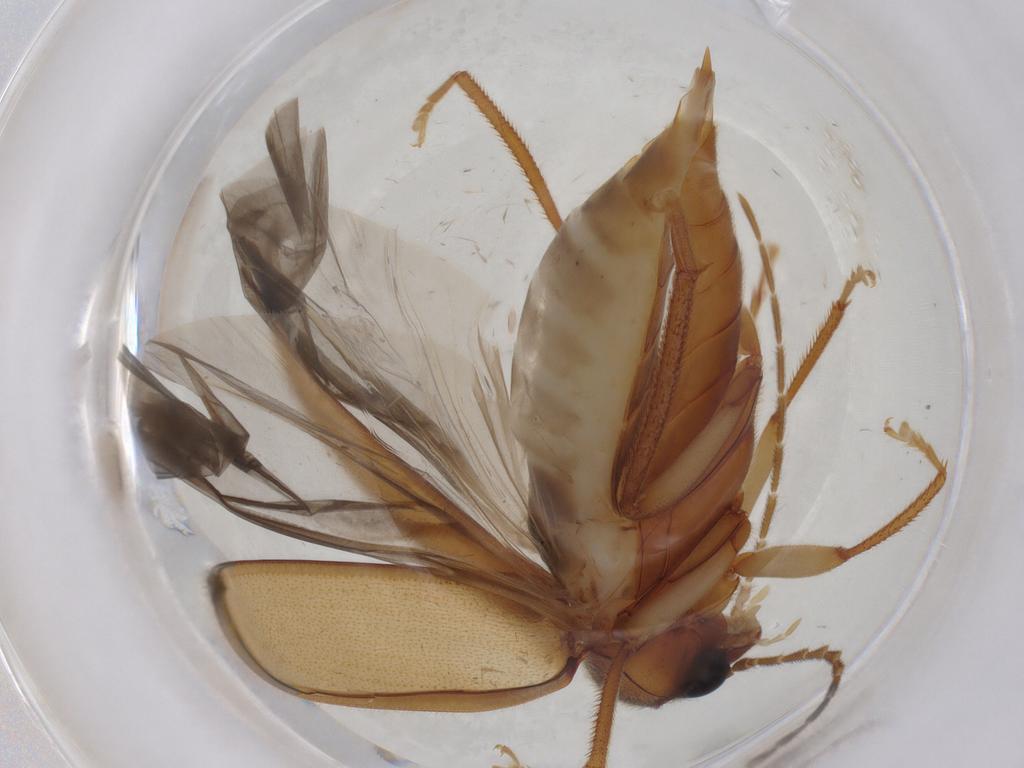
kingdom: Animalia
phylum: Arthropoda
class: Insecta
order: Coleoptera
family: Ptilodactylidae
